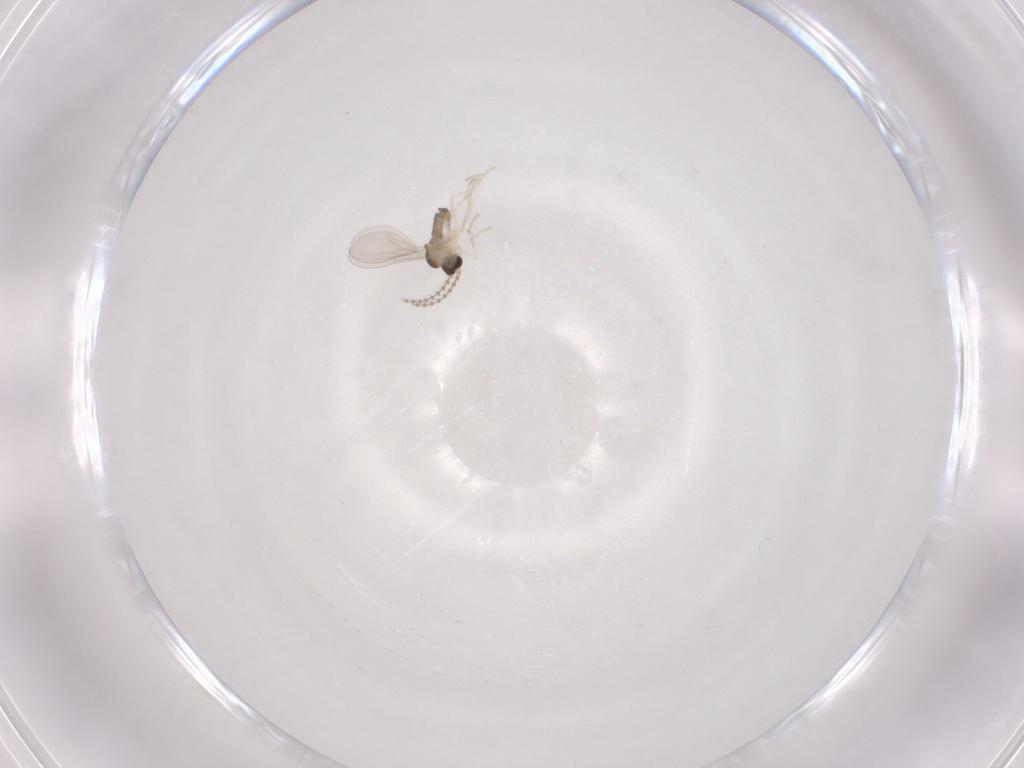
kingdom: Animalia
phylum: Arthropoda
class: Insecta
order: Diptera
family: Cecidomyiidae
